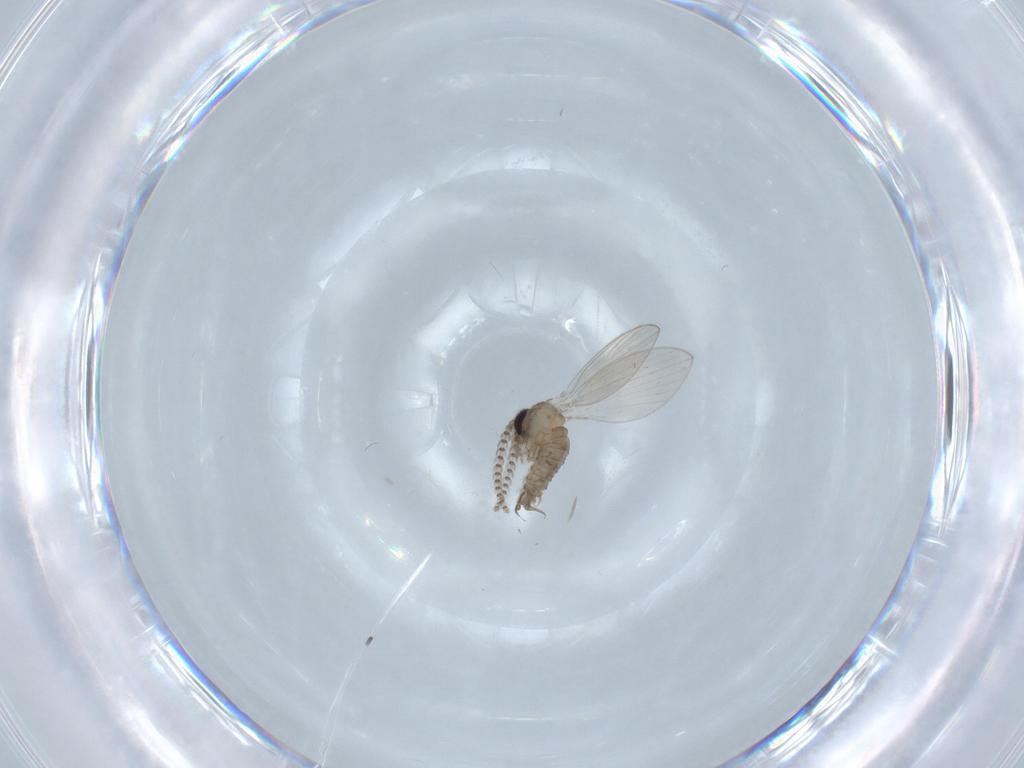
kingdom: Animalia
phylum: Arthropoda
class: Insecta
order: Diptera
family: Psychodidae
